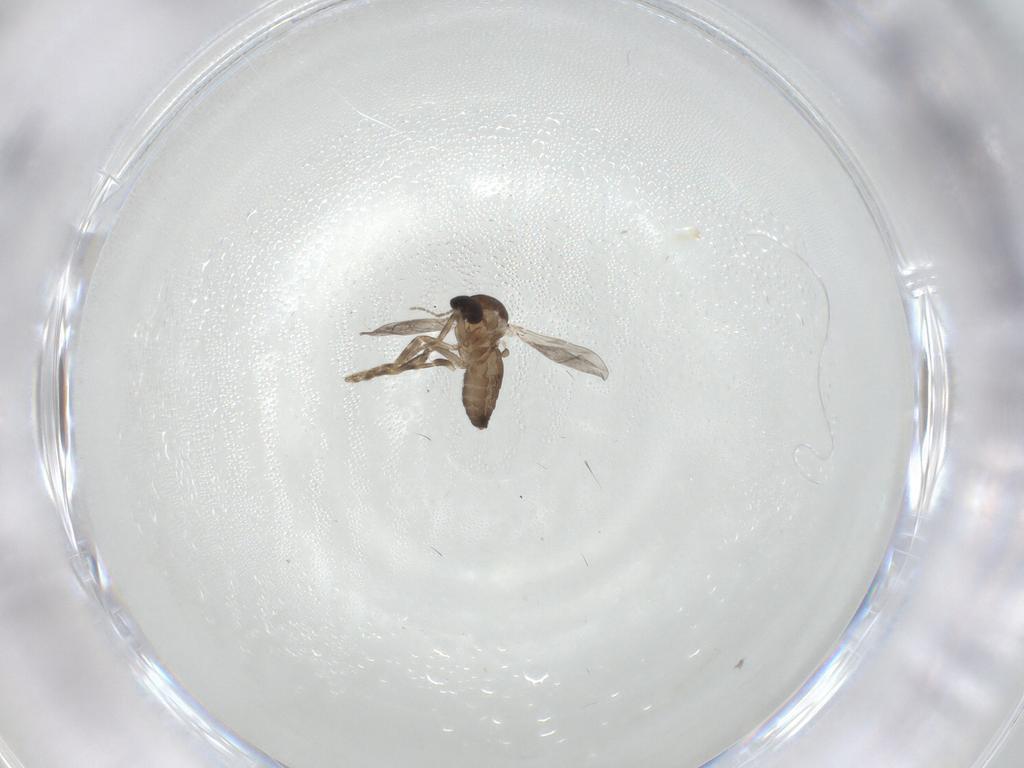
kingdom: Animalia
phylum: Arthropoda
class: Insecta
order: Diptera
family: Ceratopogonidae
